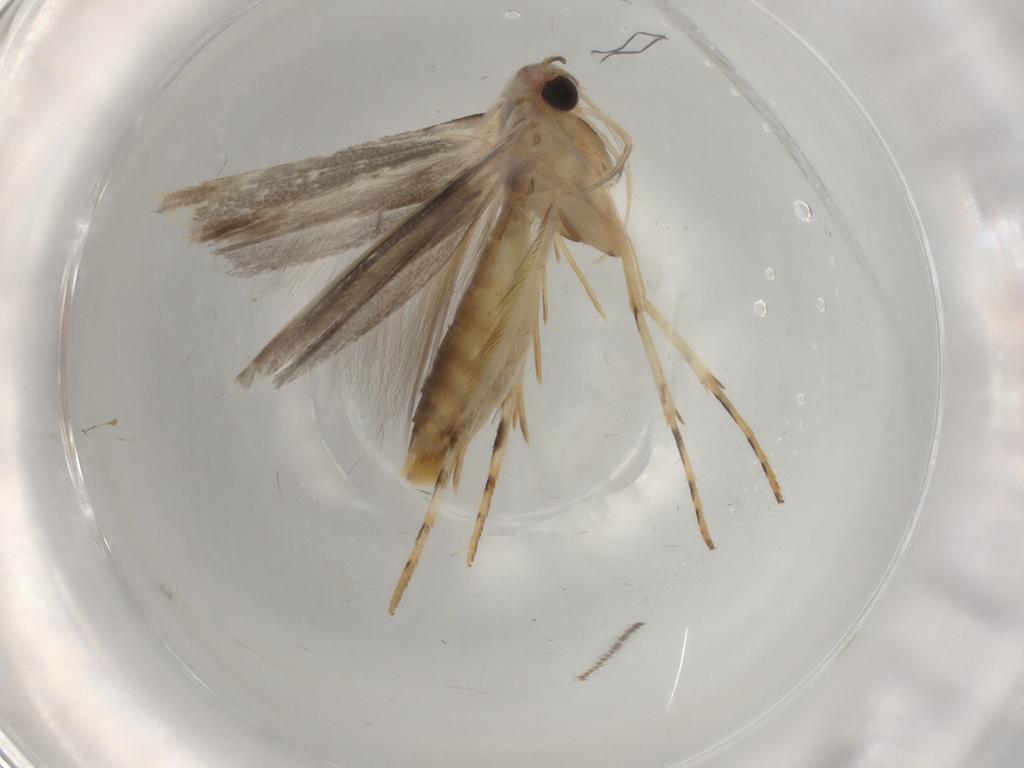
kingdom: Animalia
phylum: Arthropoda
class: Insecta
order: Lepidoptera
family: Gelechiidae
